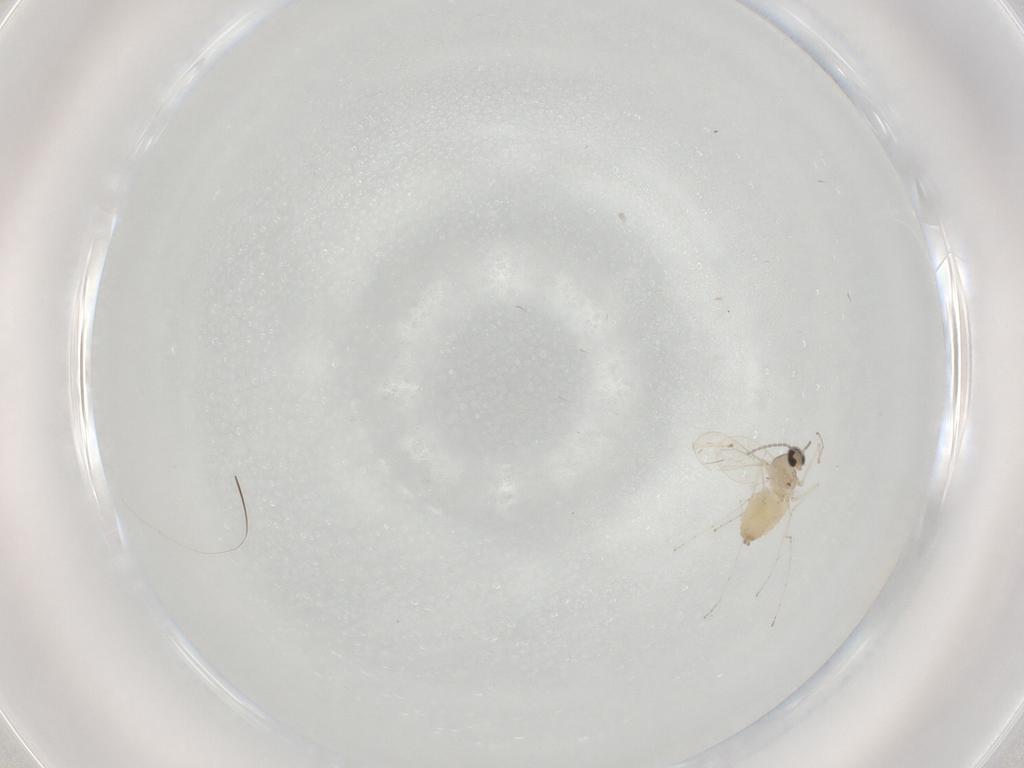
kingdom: Animalia
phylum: Arthropoda
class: Insecta
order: Diptera
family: Cecidomyiidae
